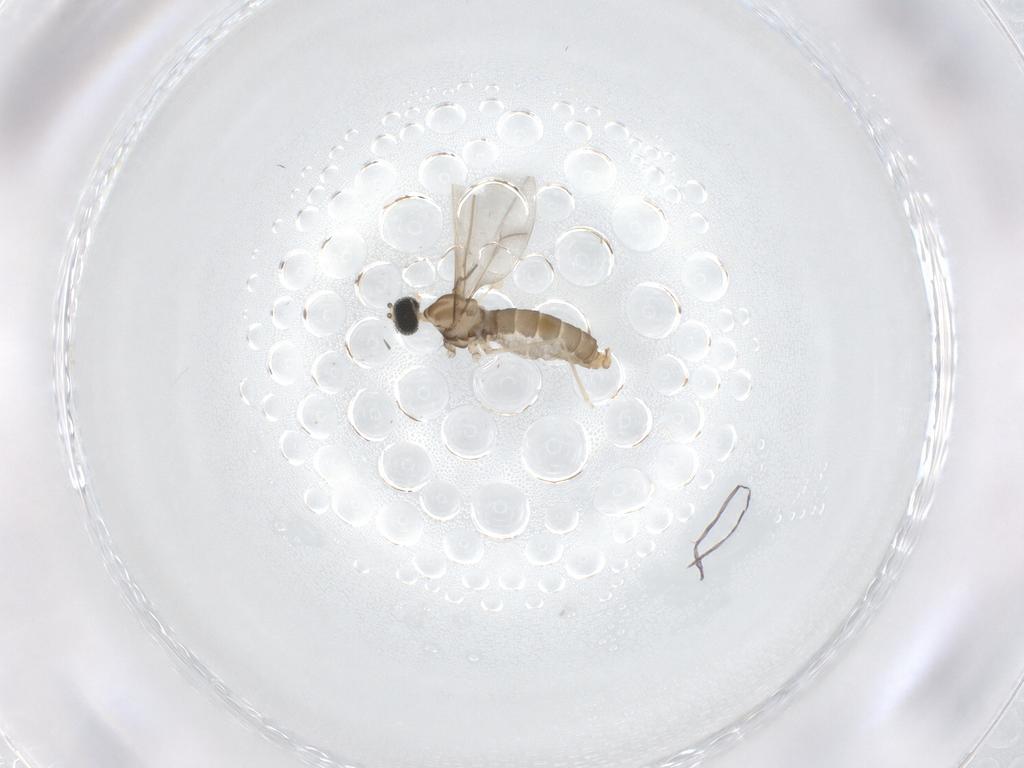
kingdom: Animalia
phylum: Arthropoda
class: Insecta
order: Diptera
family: Cecidomyiidae
